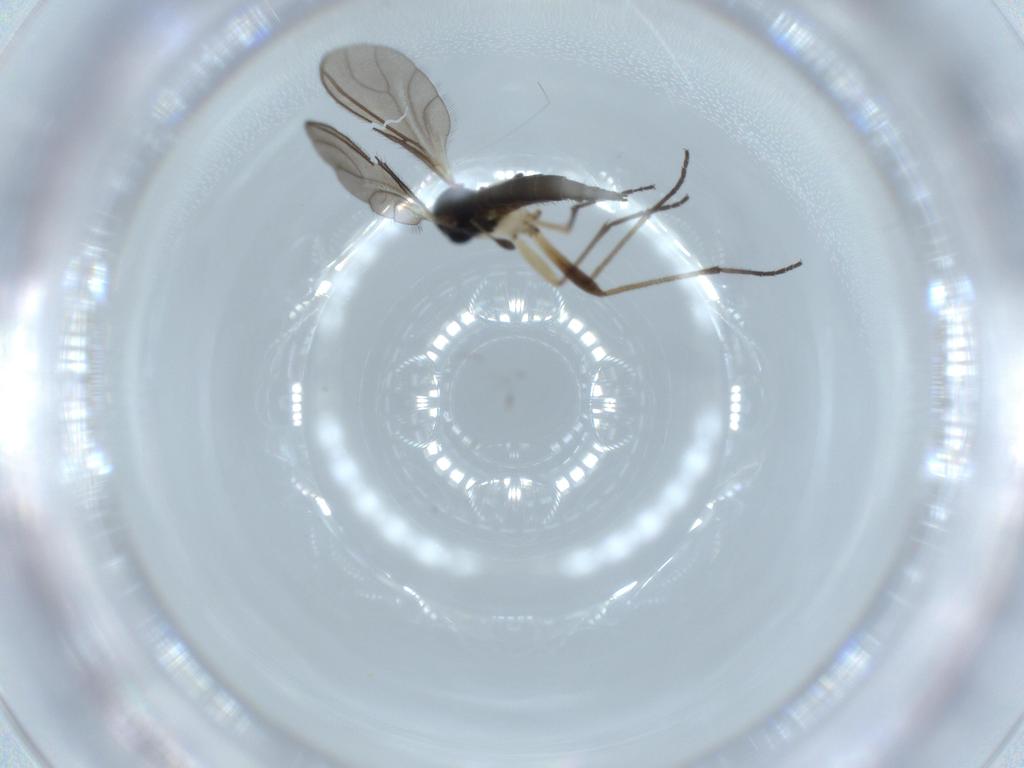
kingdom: Animalia
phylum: Arthropoda
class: Insecta
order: Diptera
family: Sciaridae
